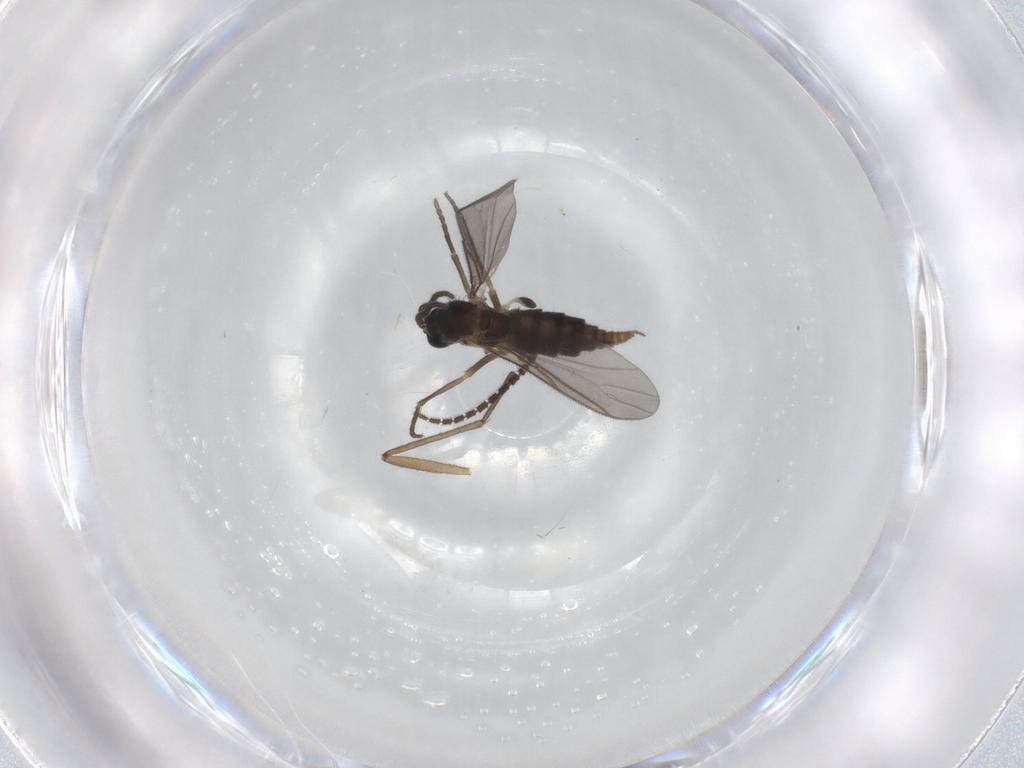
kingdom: Animalia
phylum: Arthropoda
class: Insecta
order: Diptera
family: Sciaridae
